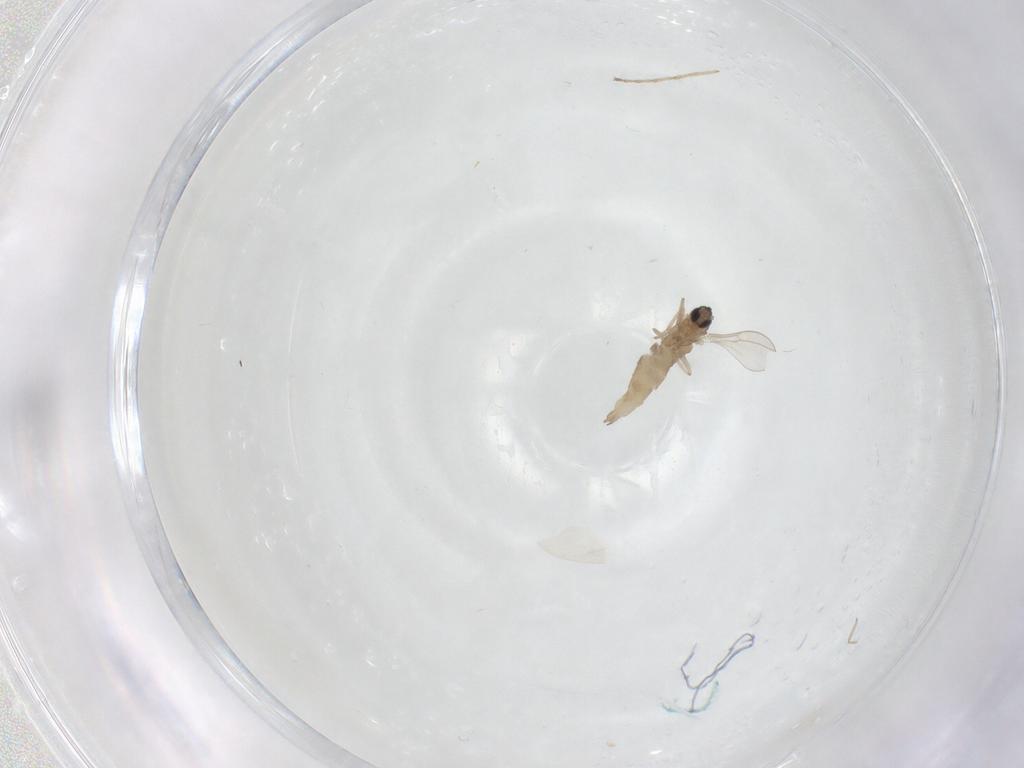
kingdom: Animalia
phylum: Arthropoda
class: Insecta
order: Diptera
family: Cecidomyiidae
